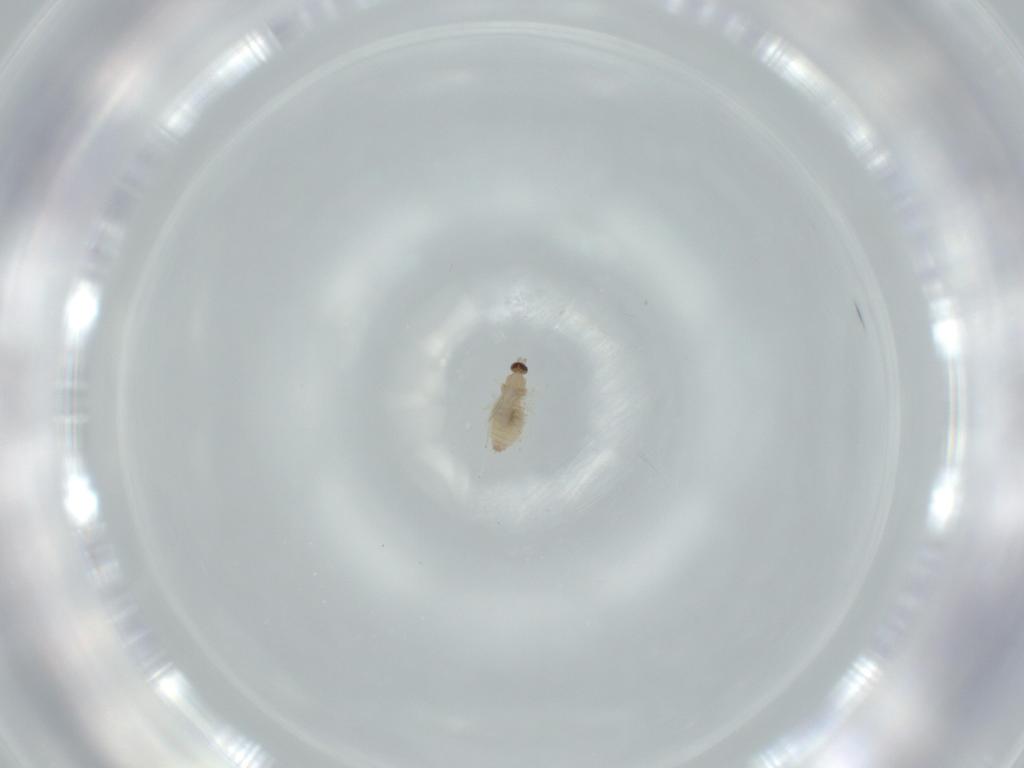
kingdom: Animalia
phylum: Arthropoda
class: Insecta
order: Diptera
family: Cecidomyiidae
